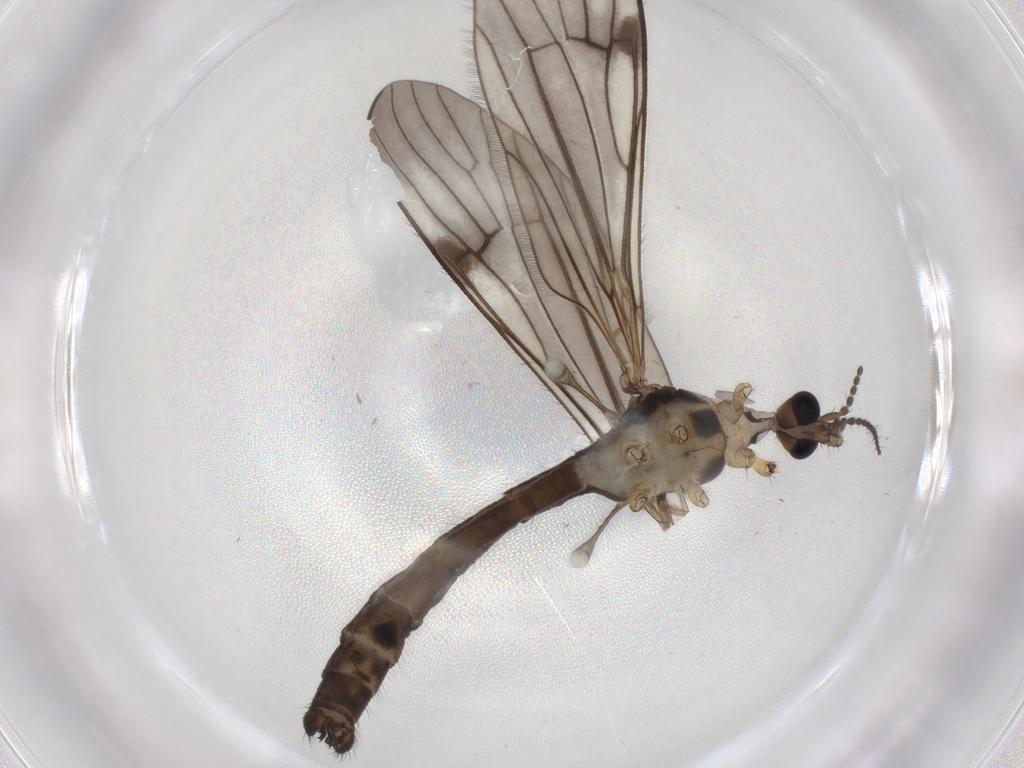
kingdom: Animalia
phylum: Arthropoda
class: Insecta
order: Diptera
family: Limoniidae
